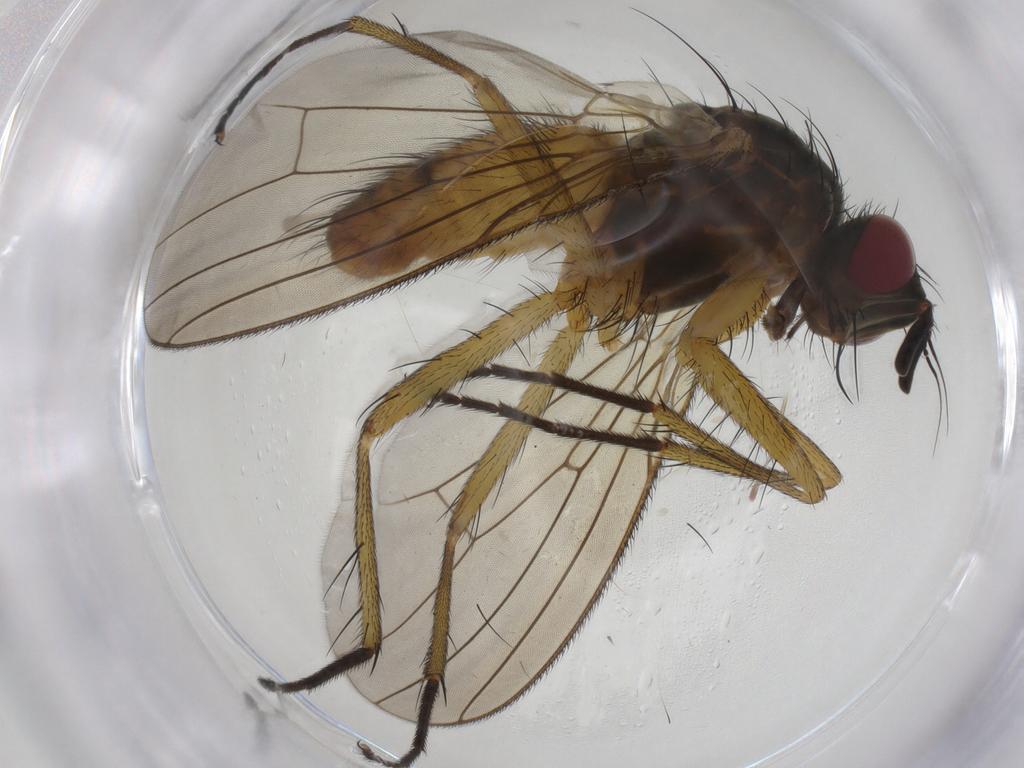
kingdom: Animalia
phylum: Arthropoda
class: Insecta
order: Diptera
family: Muscidae
